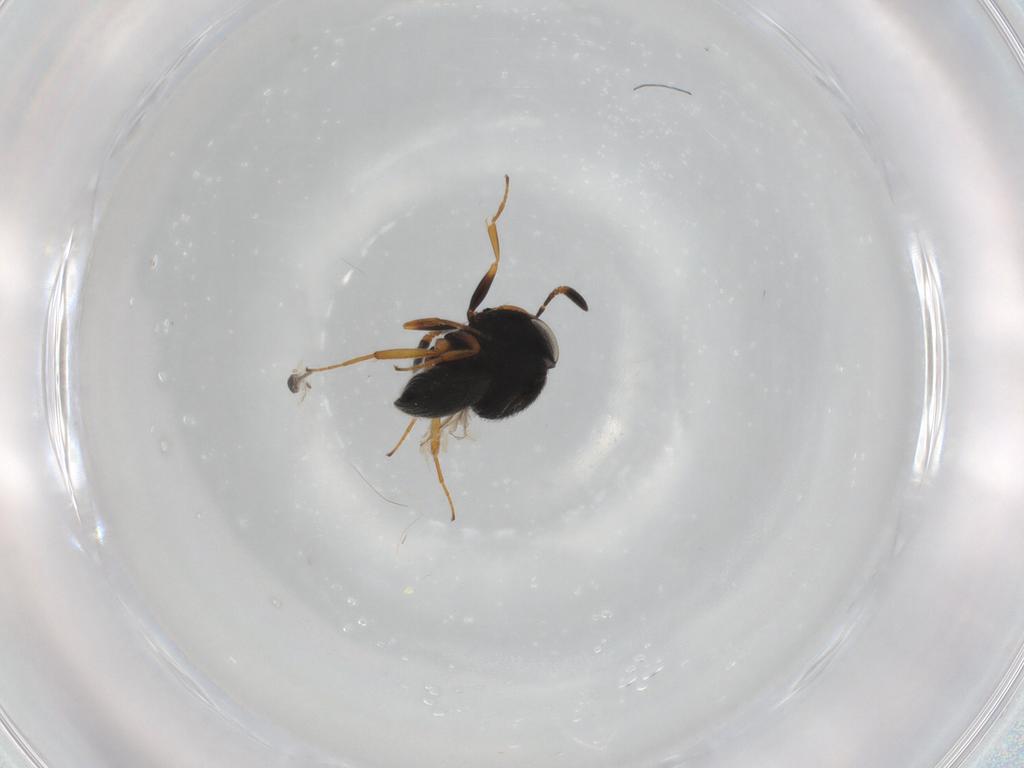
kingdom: Animalia
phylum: Arthropoda
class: Insecta
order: Hymenoptera
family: Scelionidae
